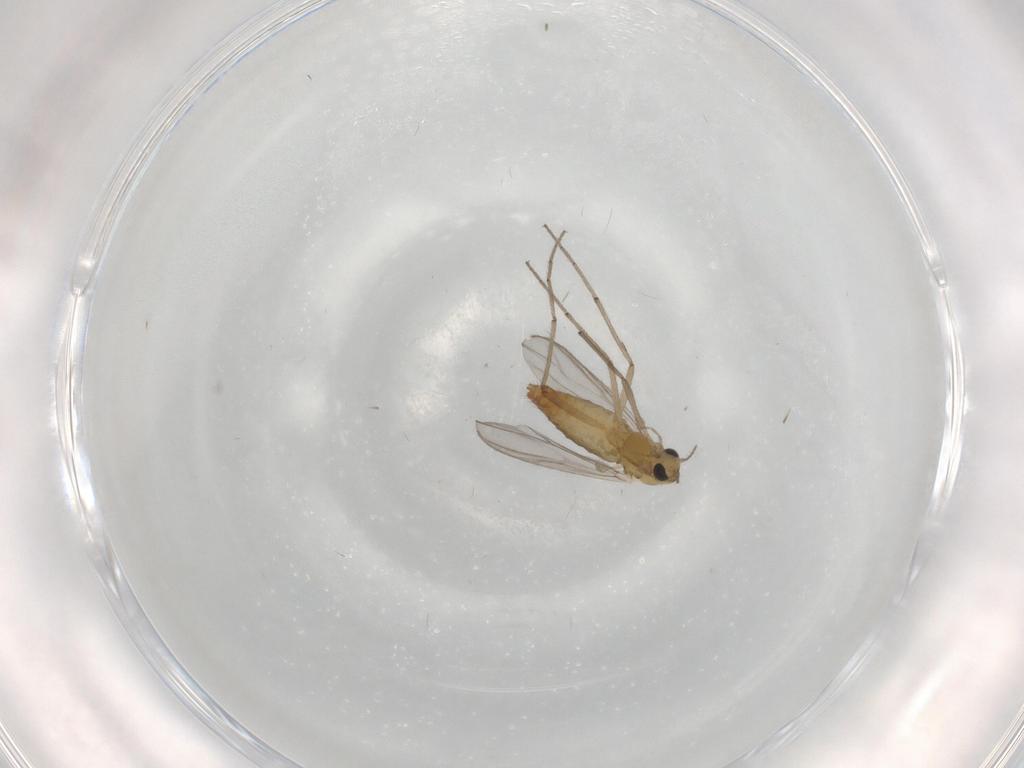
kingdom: Animalia
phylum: Arthropoda
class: Insecta
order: Diptera
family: Chironomidae
